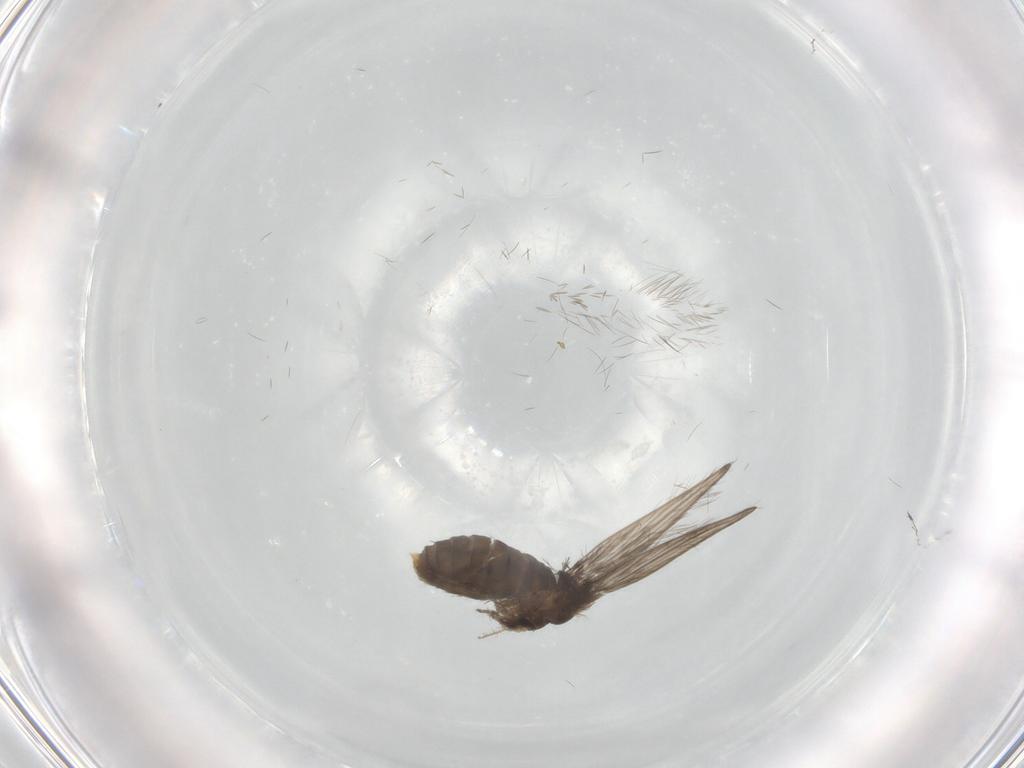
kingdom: Animalia
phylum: Arthropoda
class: Insecta
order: Diptera
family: Psychodidae
